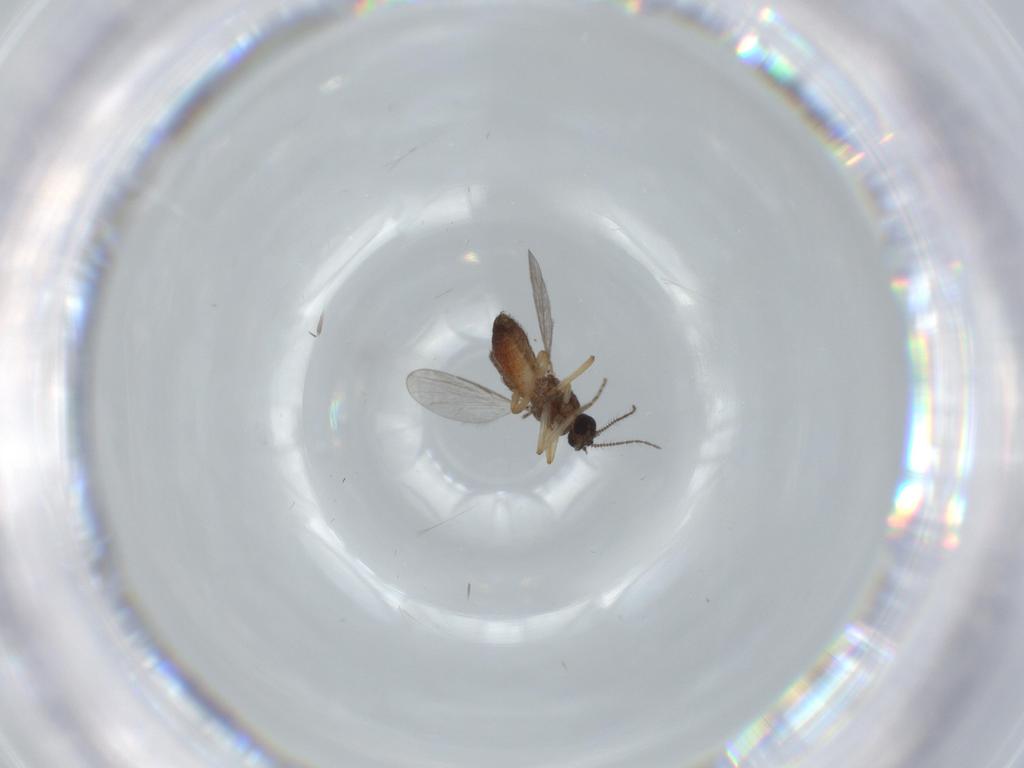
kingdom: Animalia
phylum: Arthropoda
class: Insecta
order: Diptera
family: Ceratopogonidae
